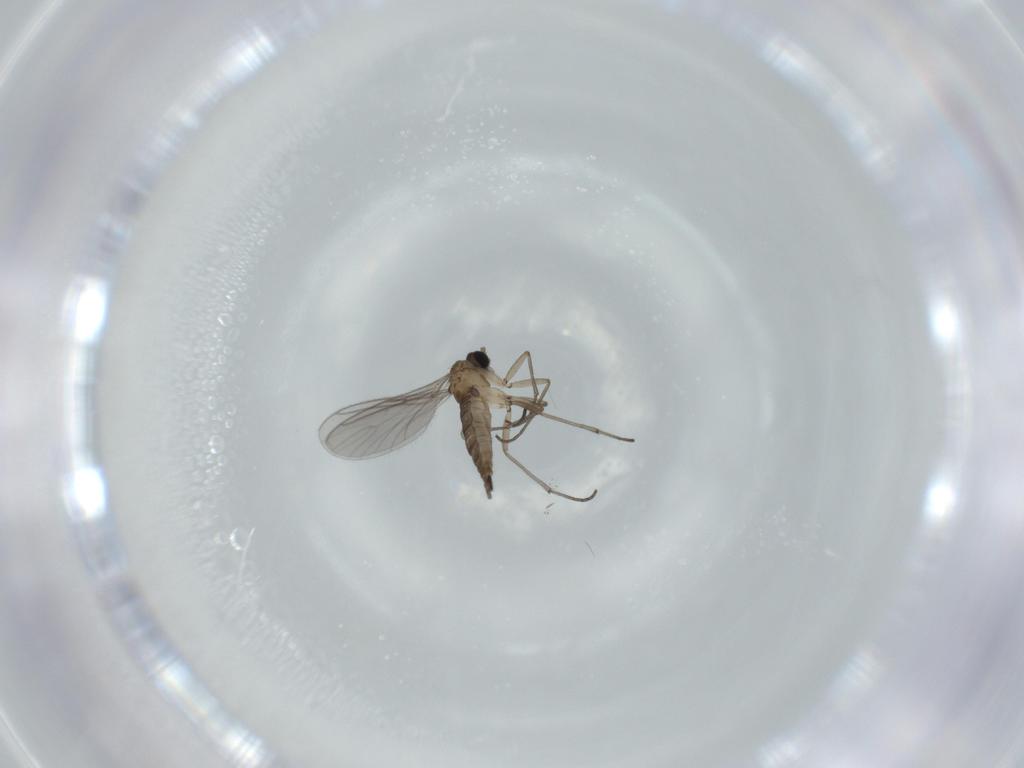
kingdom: Animalia
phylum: Arthropoda
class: Insecta
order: Diptera
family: Sciaridae
